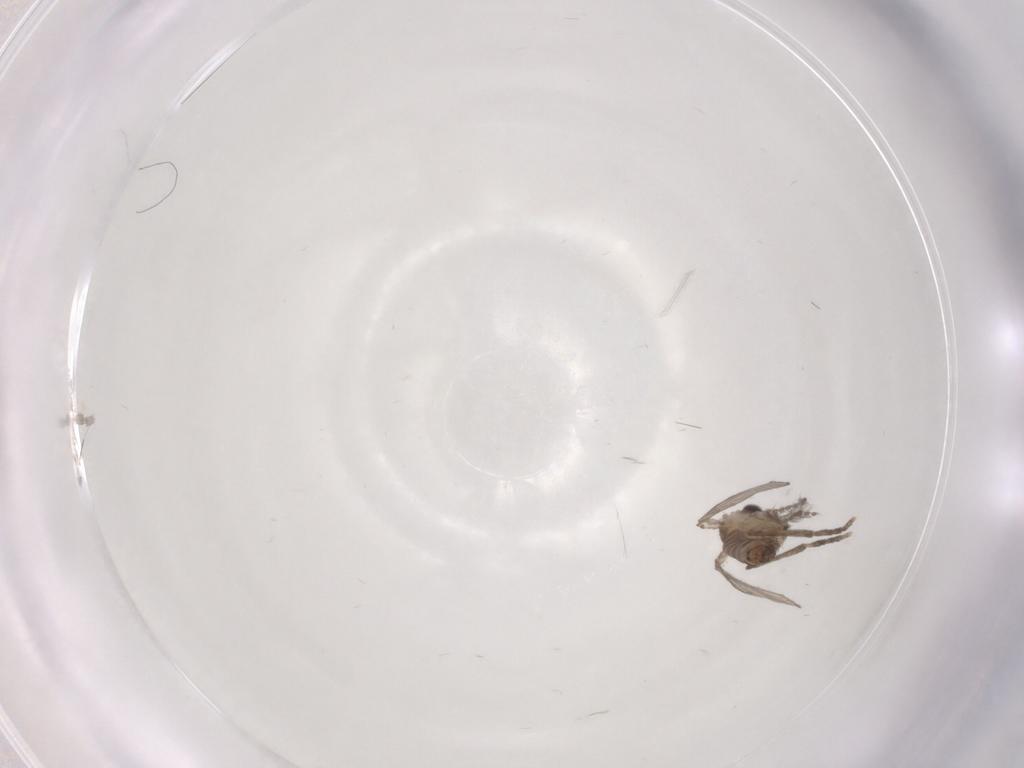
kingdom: Animalia
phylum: Arthropoda
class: Insecta
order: Diptera
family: Psychodidae
